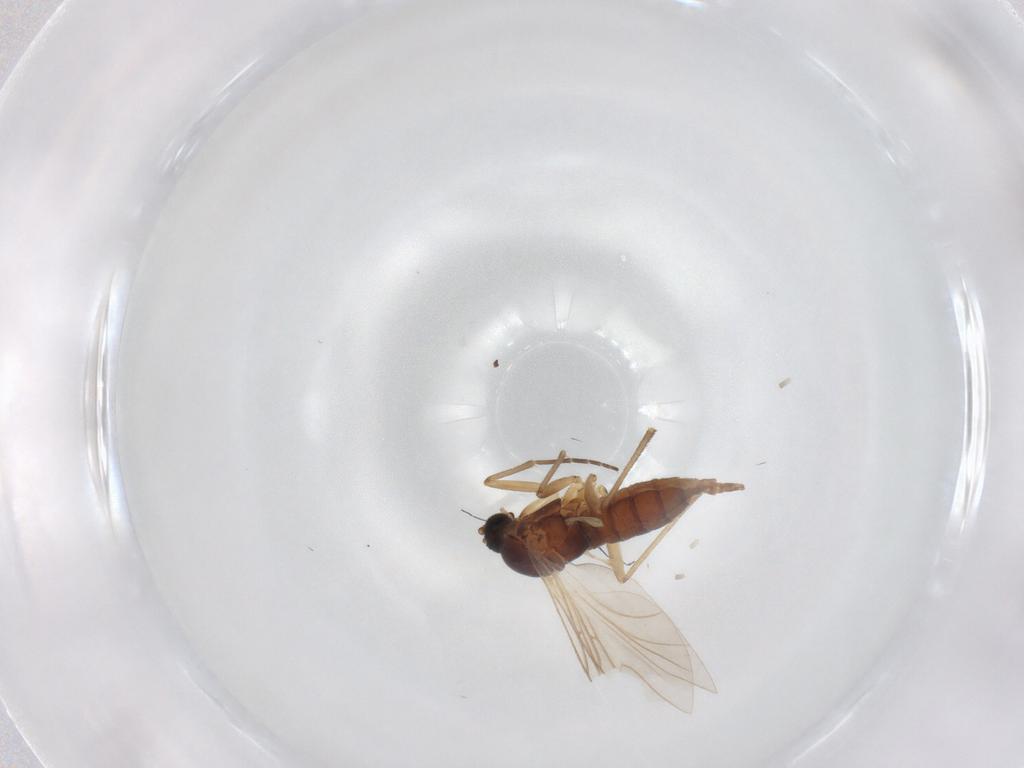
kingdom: Animalia
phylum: Arthropoda
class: Insecta
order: Diptera
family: Sciaridae
